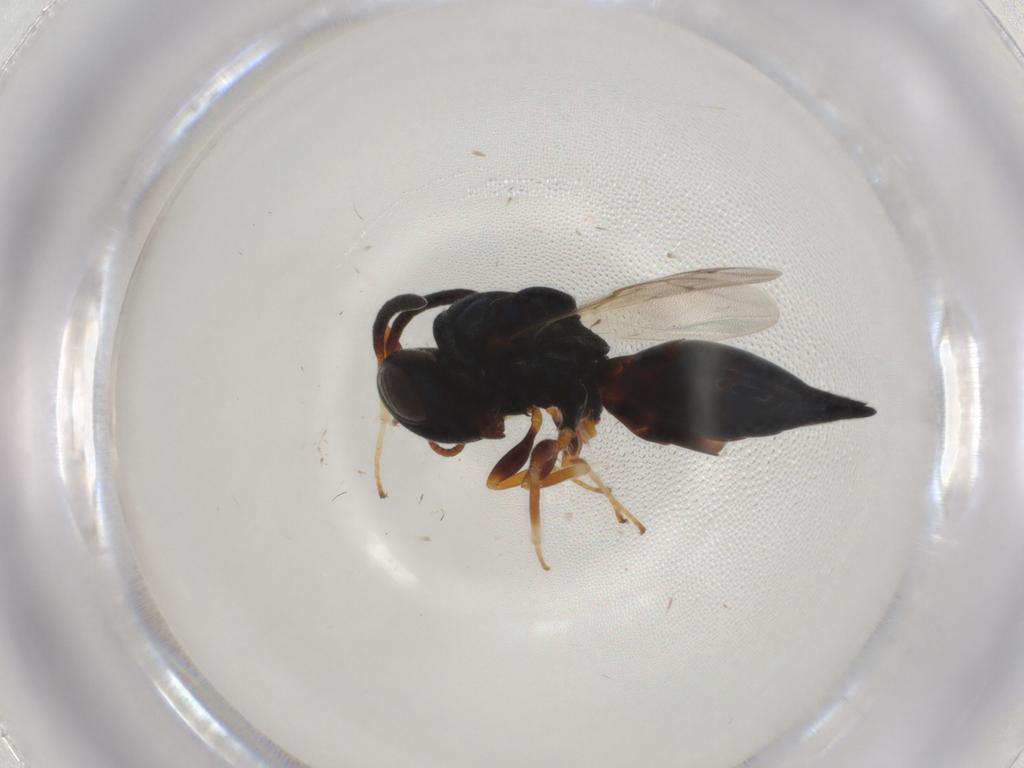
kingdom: Animalia
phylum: Arthropoda
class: Insecta
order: Hymenoptera
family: Pteromalidae
